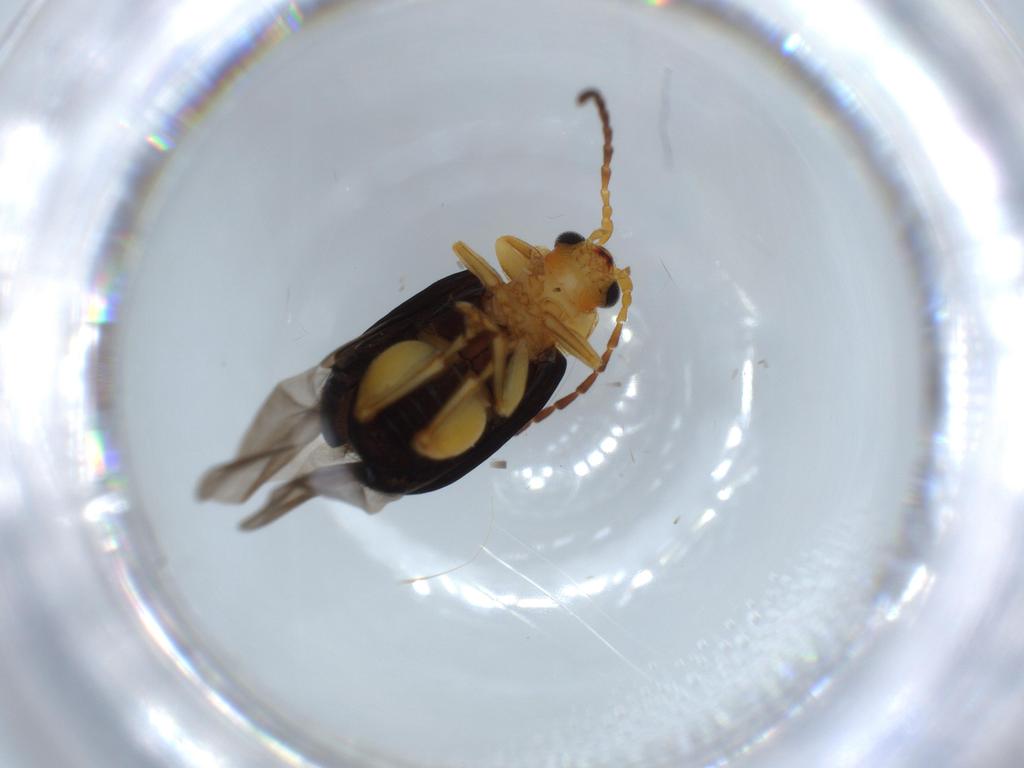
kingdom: Animalia
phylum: Arthropoda
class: Insecta
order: Coleoptera
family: Chrysomelidae
